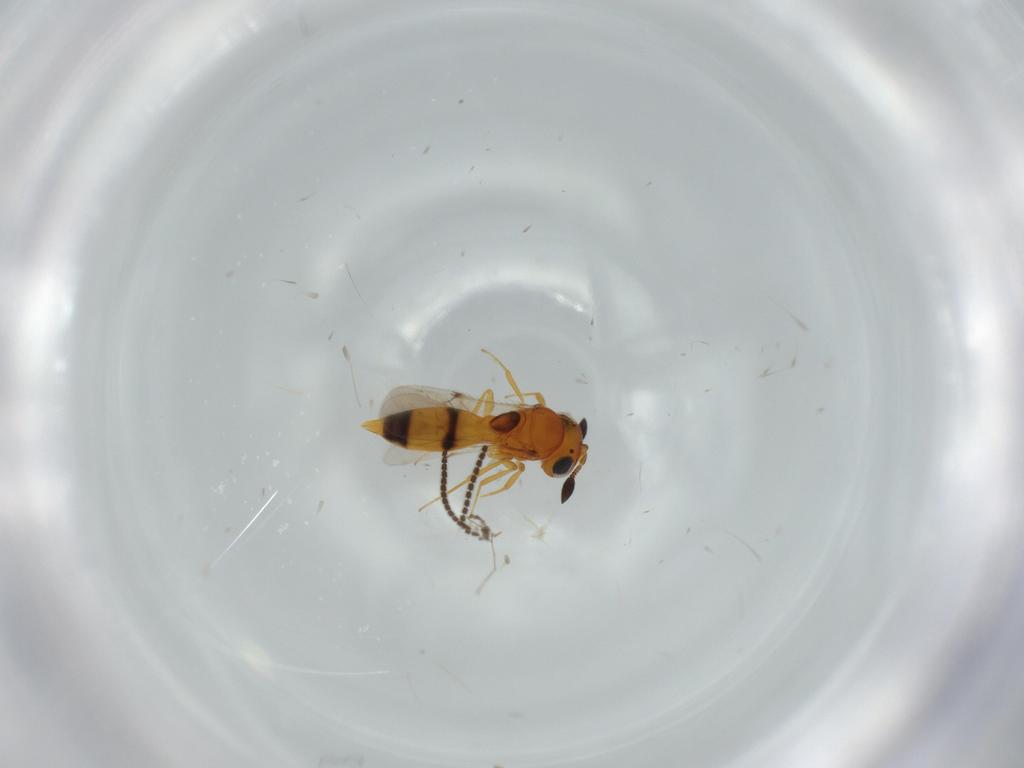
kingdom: Animalia
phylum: Arthropoda
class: Insecta
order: Hymenoptera
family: Scelionidae
